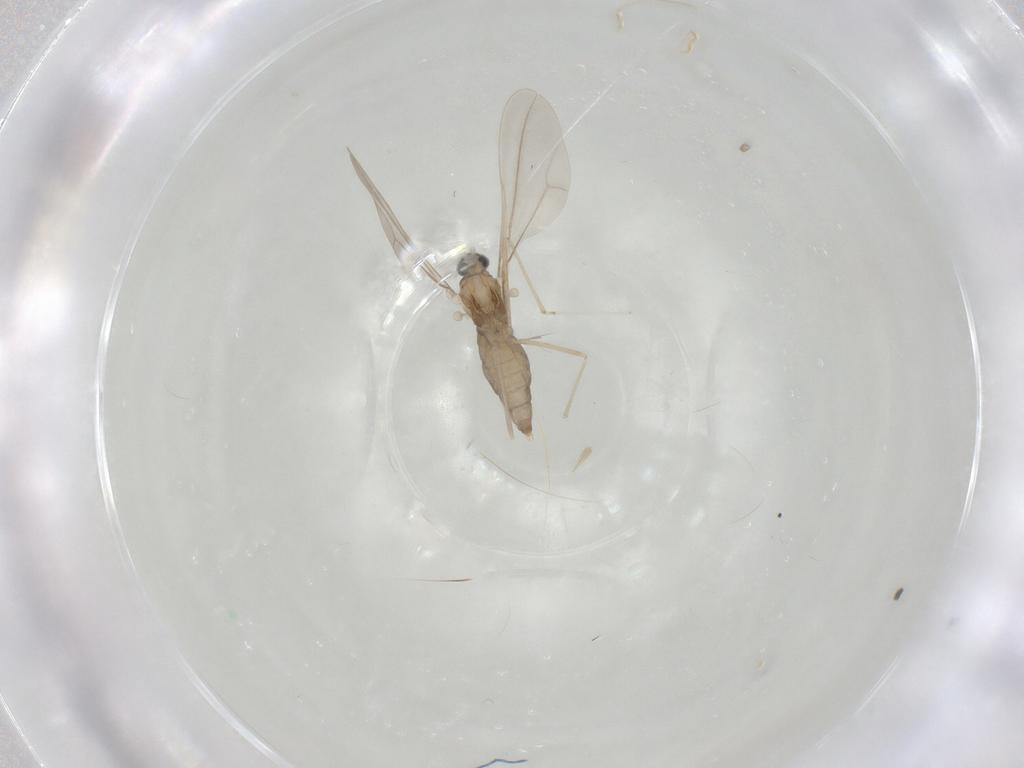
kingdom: Animalia
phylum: Arthropoda
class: Insecta
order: Diptera
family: Cecidomyiidae
